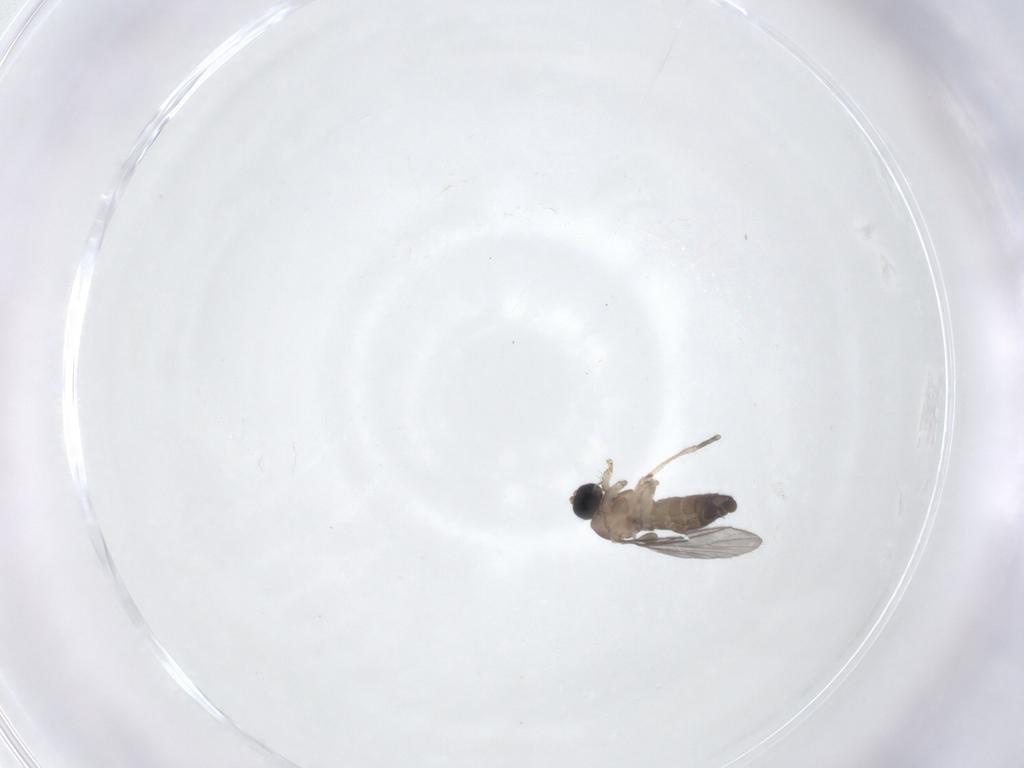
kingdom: Animalia
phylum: Arthropoda
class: Insecta
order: Diptera
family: Sciaridae
